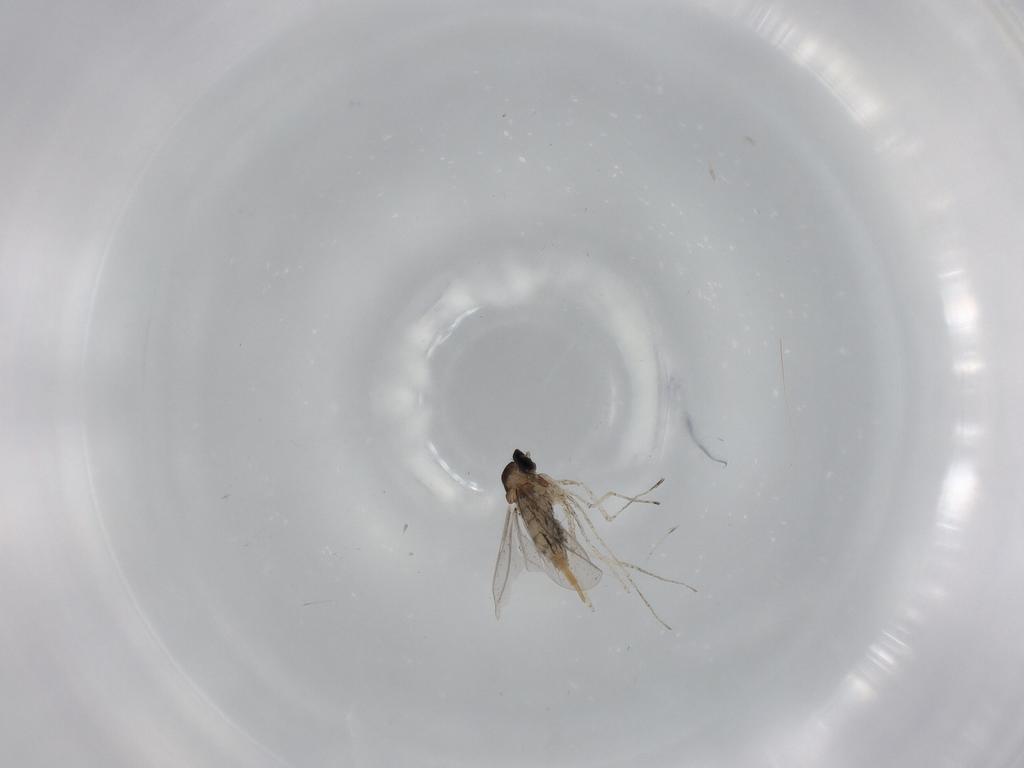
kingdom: Animalia
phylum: Arthropoda
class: Insecta
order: Diptera
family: Cecidomyiidae
